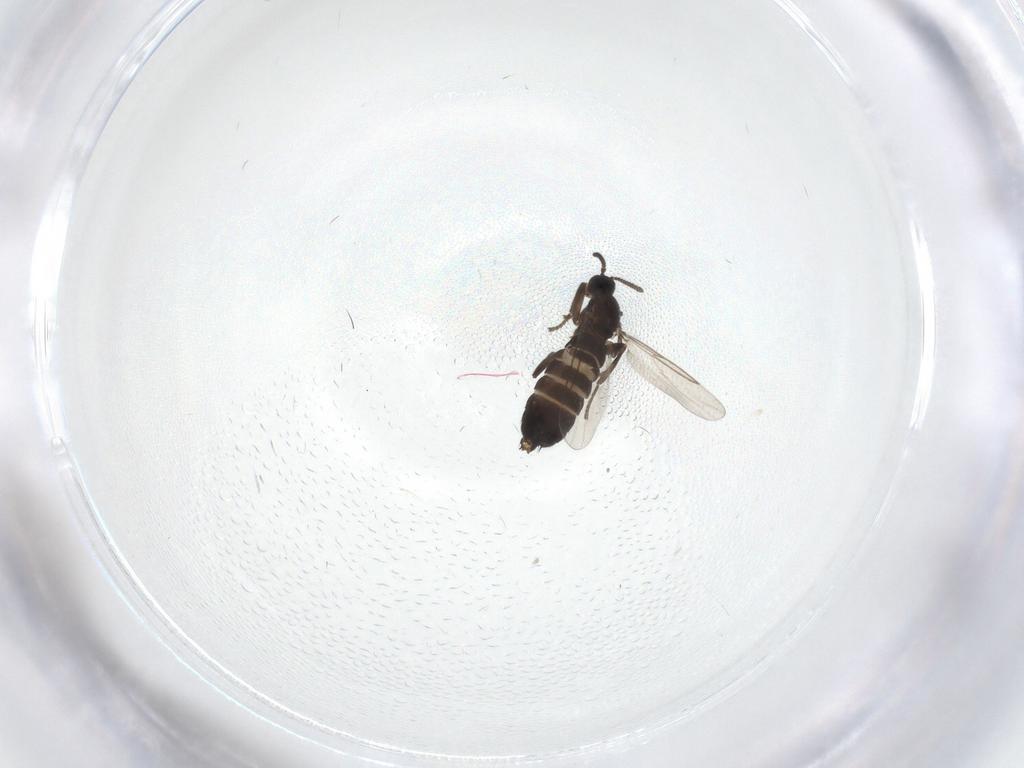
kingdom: Animalia
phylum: Arthropoda
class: Insecta
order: Diptera
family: Scatopsidae
